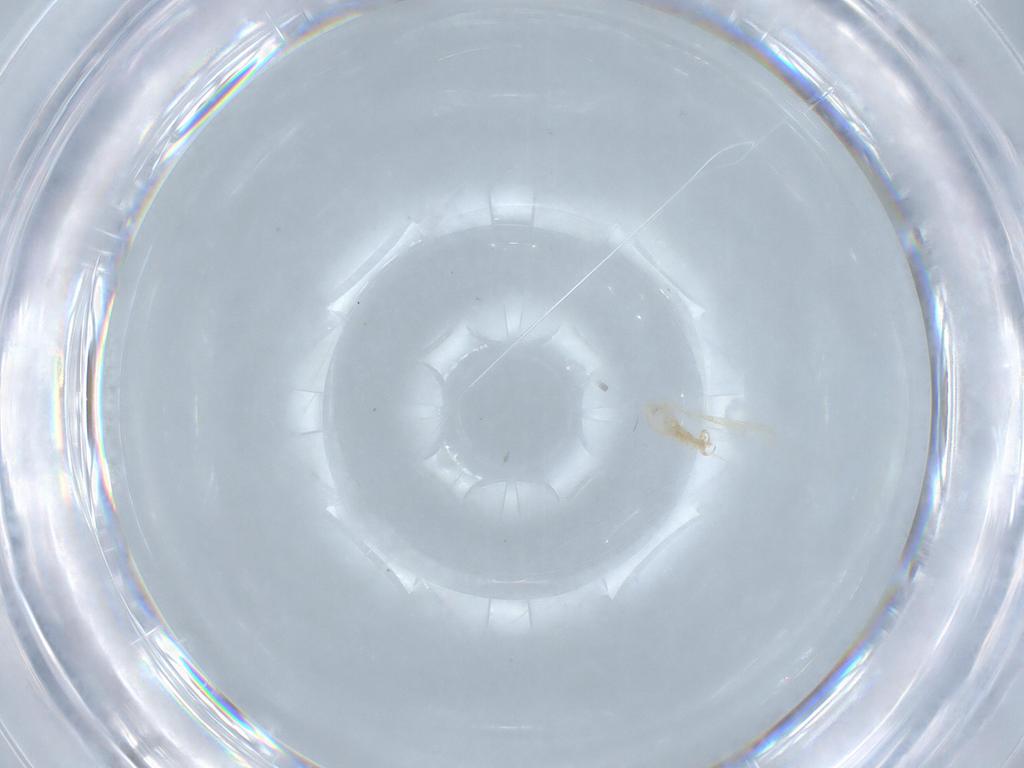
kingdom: Animalia
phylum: Arthropoda
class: Insecta
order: Diptera
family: Cecidomyiidae
